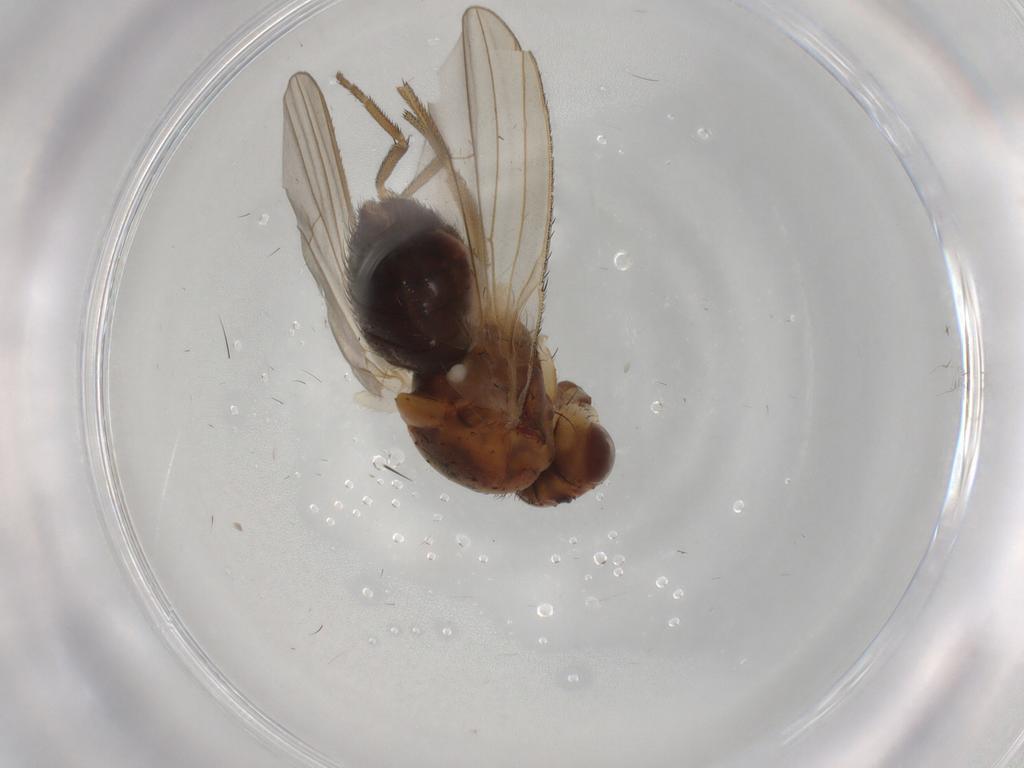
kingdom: Animalia
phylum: Arthropoda
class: Insecta
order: Diptera
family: Heleomyzidae
